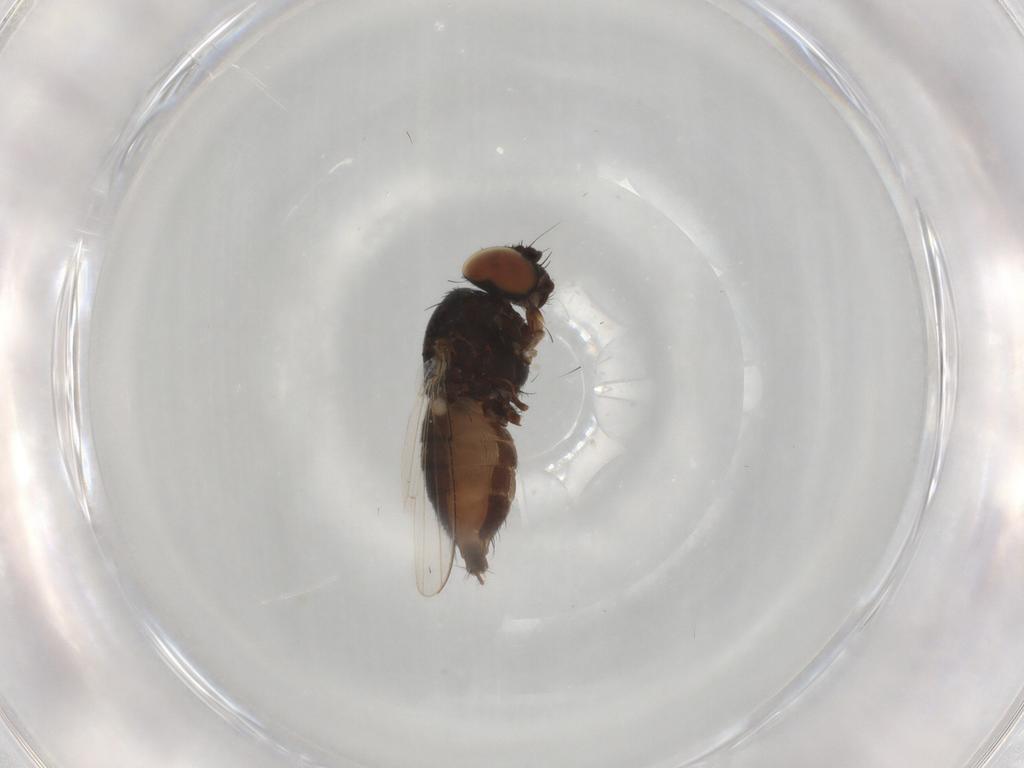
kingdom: Animalia
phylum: Arthropoda
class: Insecta
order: Diptera
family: Milichiidae
